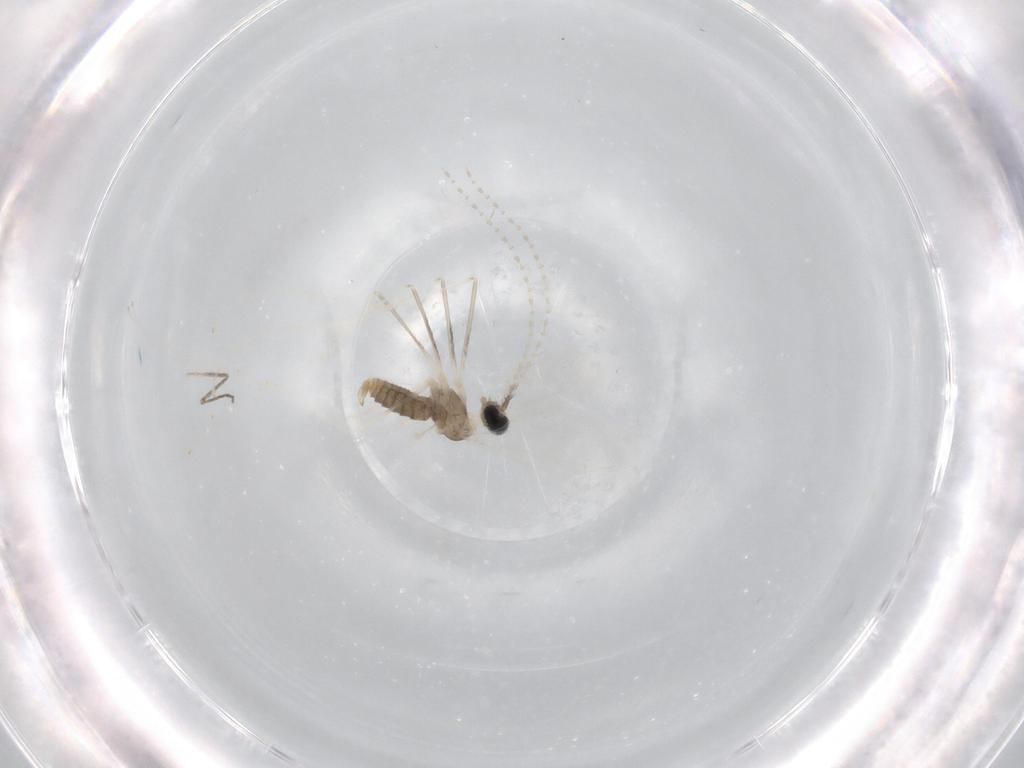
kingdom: Animalia
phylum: Arthropoda
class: Insecta
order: Diptera
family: Cecidomyiidae
